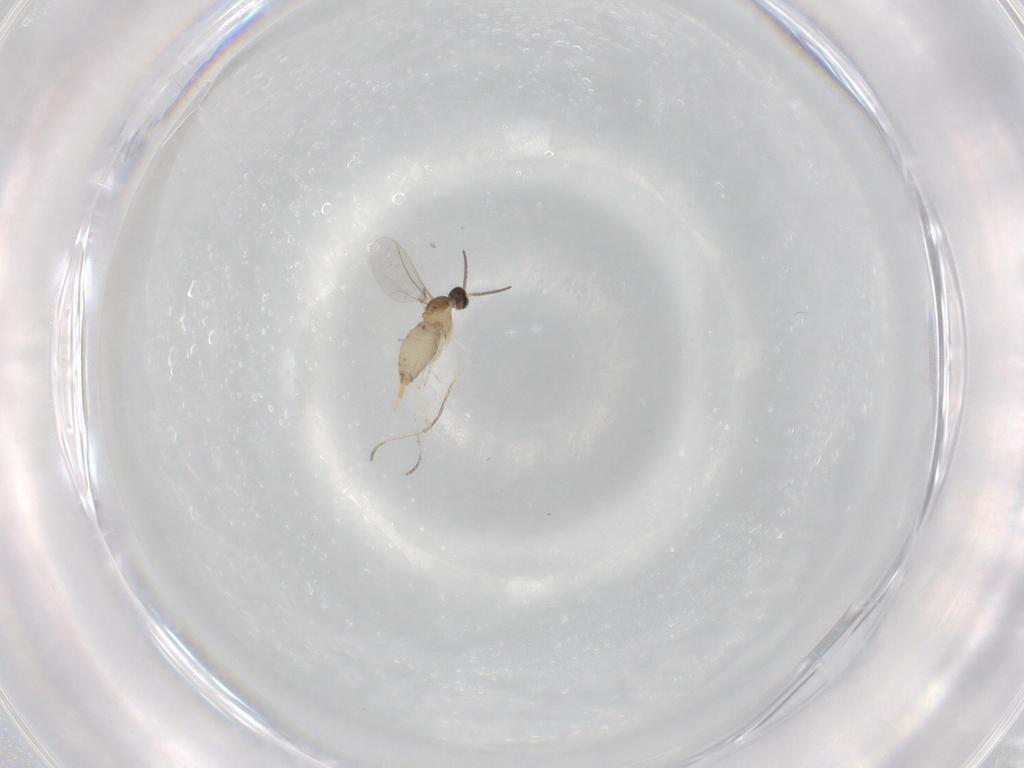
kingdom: Animalia
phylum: Arthropoda
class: Insecta
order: Diptera
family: Cecidomyiidae
